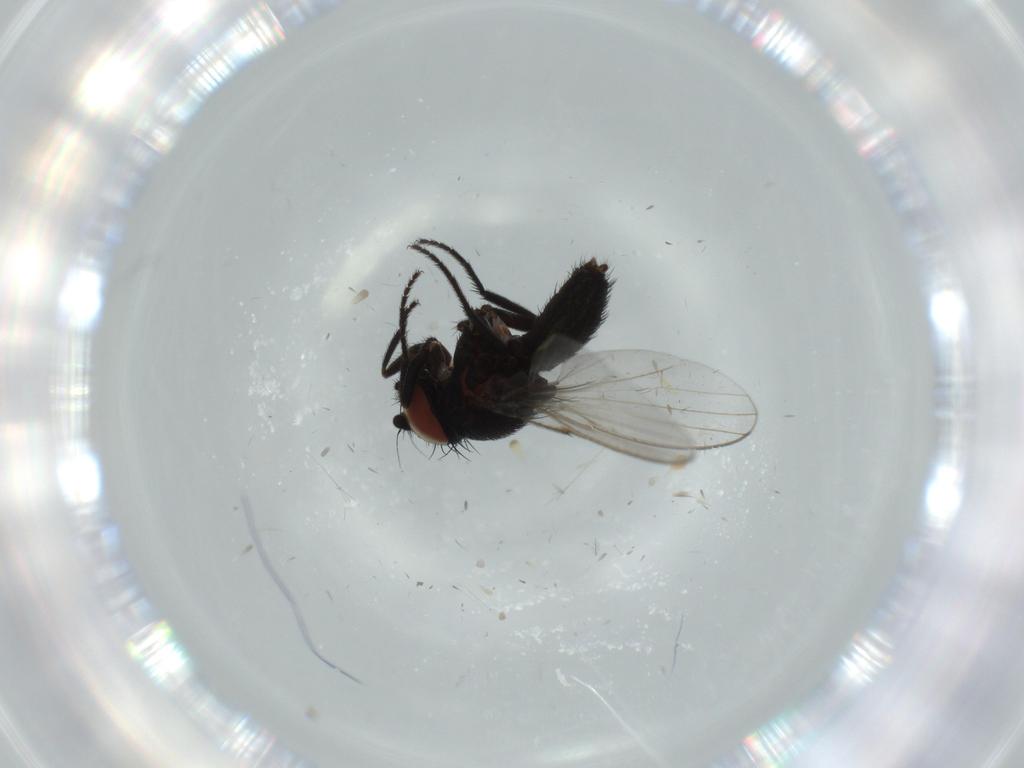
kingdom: Animalia
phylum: Arthropoda
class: Insecta
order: Diptera
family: Milichiidae
